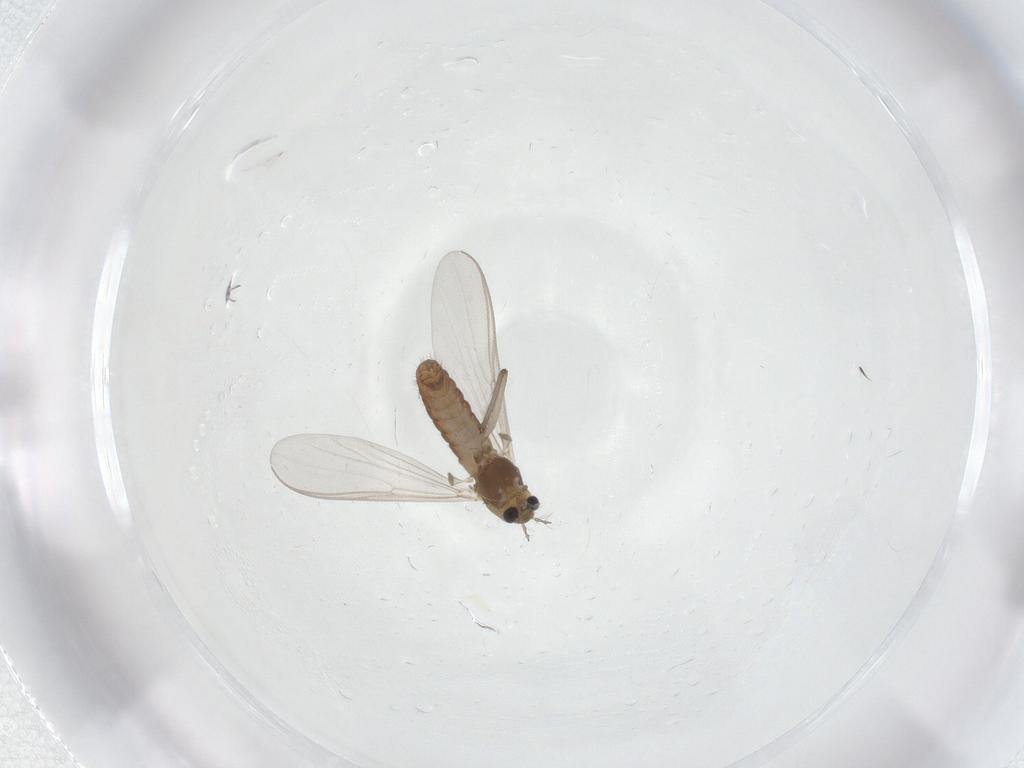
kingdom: Animalia
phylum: Arthropoda
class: Insecta
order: Diptera
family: Chironomidae
